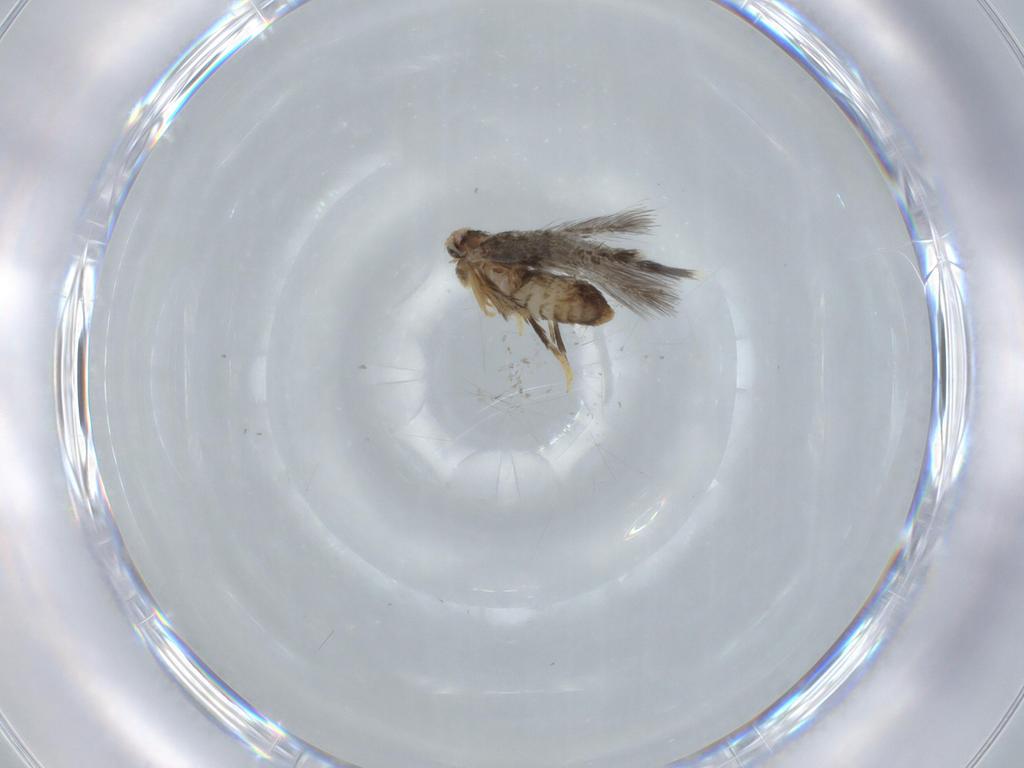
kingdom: Animalia
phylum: Arthropoda
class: Insecta
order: Lepidoptera
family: Nepticulidae
